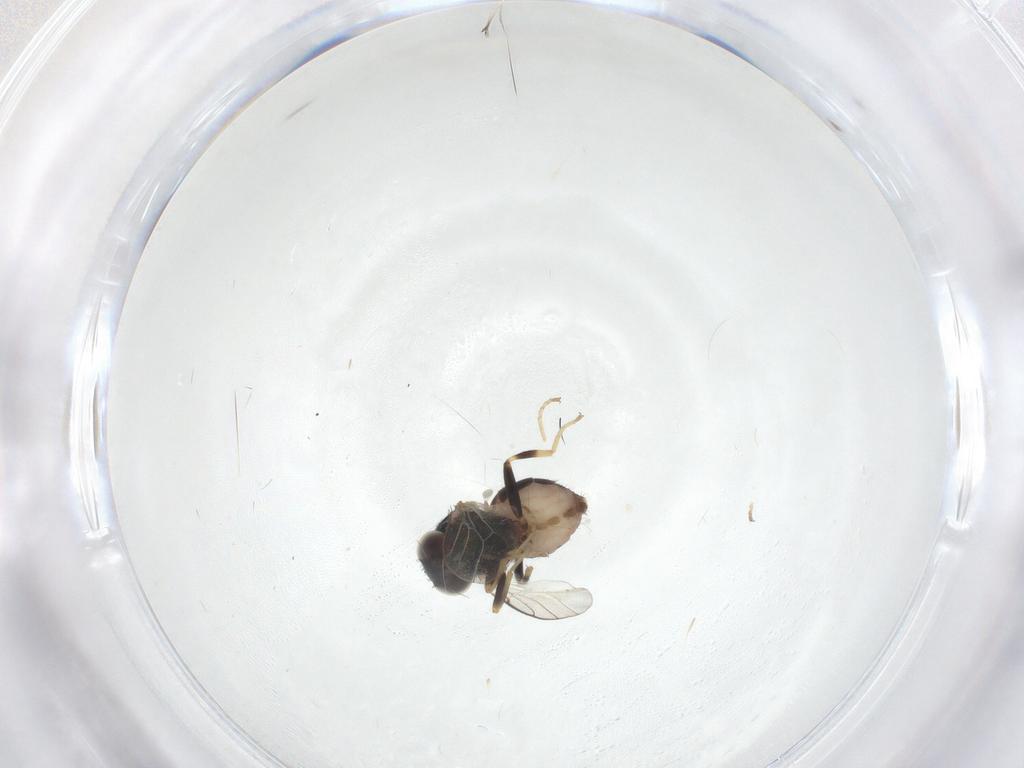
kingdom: Animalia
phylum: Arthropoda
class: Insecta
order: Diptera
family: Chloropidae
